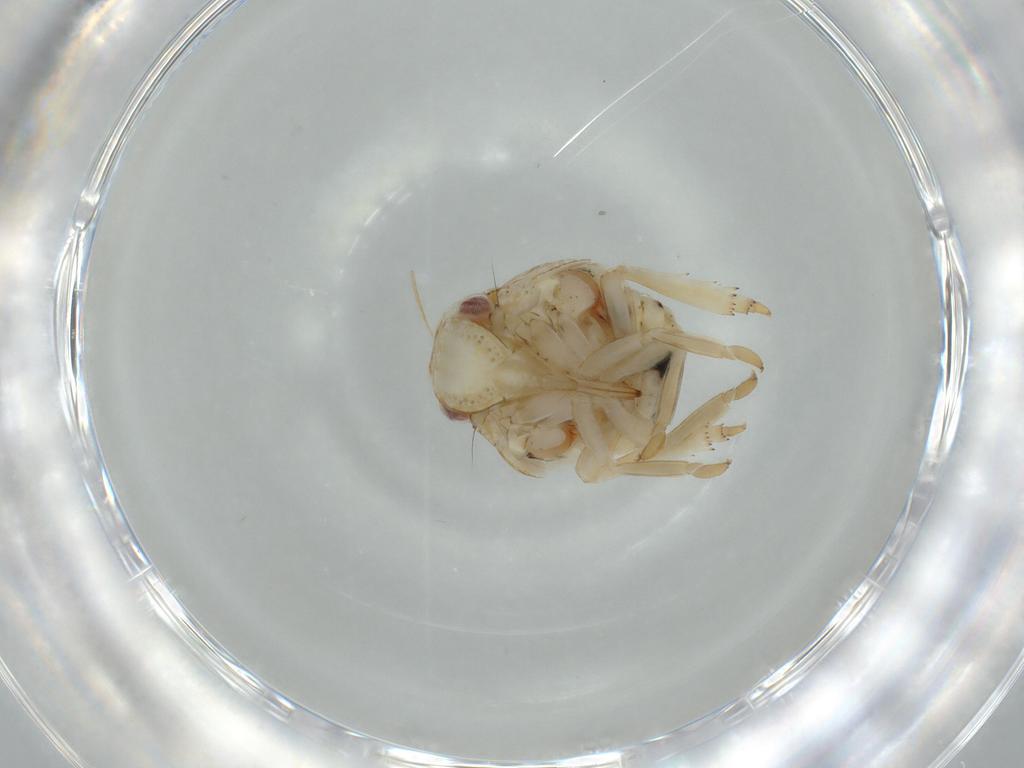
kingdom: Animalia
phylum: Arthropoda
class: Insecta
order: Hemiptera
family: Acanaloniidae
